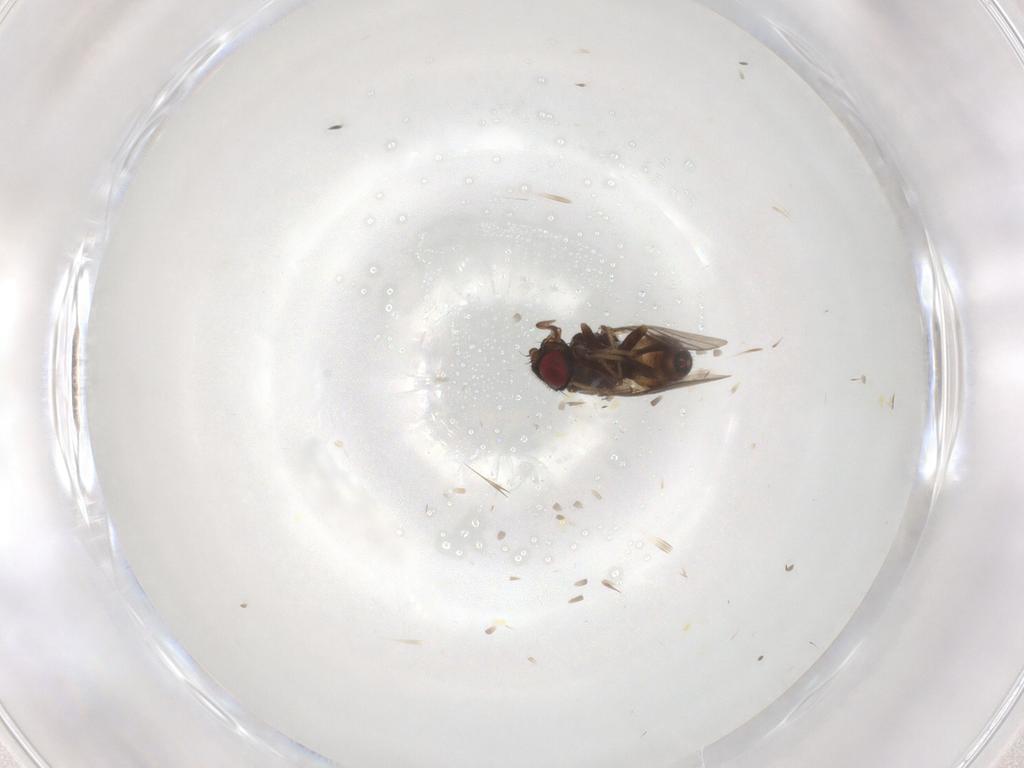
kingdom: Animalia
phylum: Arthropoda
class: Insecta
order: Diptera
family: Chloropidae
